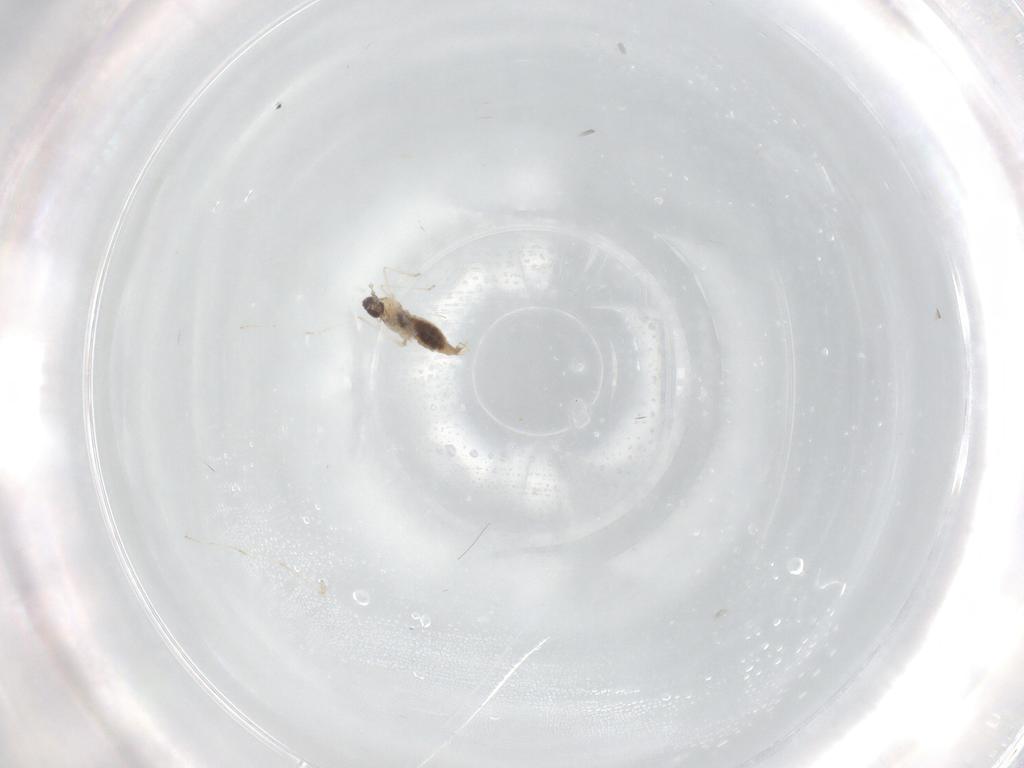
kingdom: Animalia
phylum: Arthropoda
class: Insecta
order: Diptera
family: Cecidomyiidae
